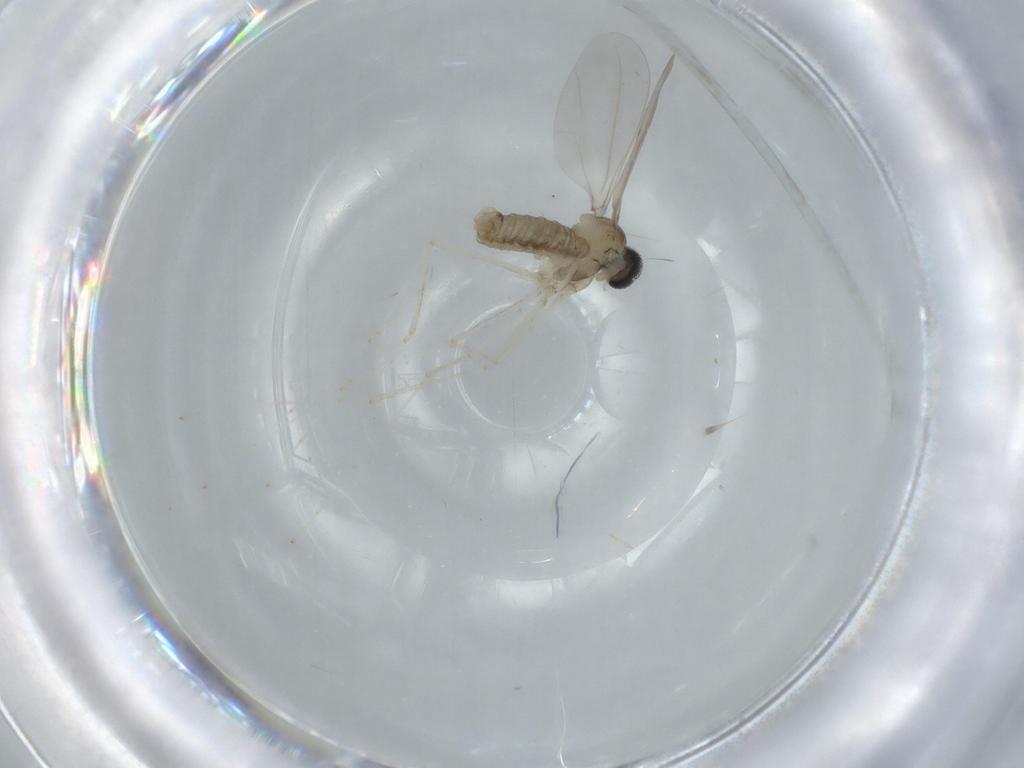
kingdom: Animalia
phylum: Arthropoda
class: Insecta
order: Diptera
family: Cecidomyiidae
